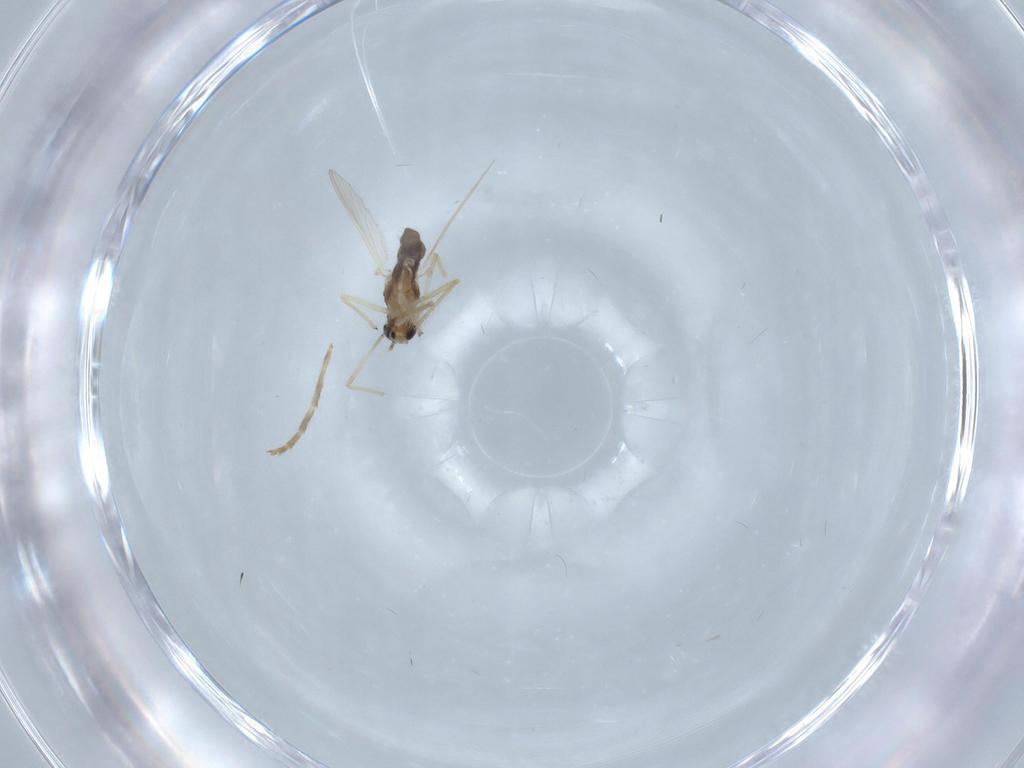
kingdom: Animalia
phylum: Arthropoda
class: Insecta
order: Diptera
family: Chironomidae
